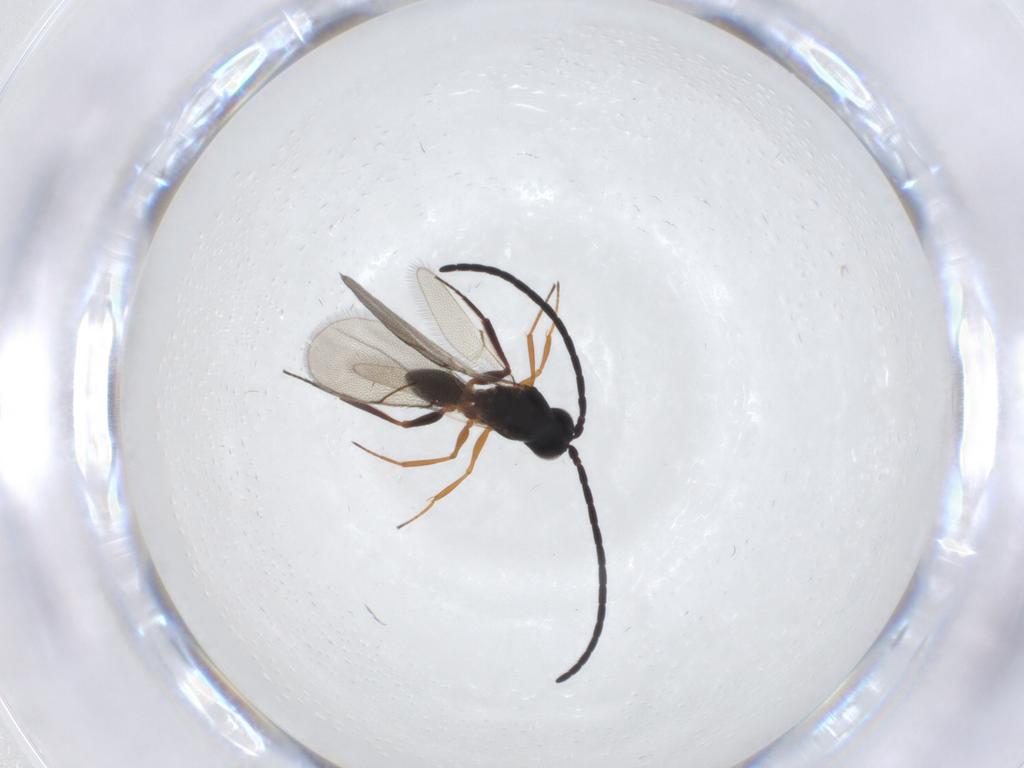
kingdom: Animalia
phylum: Arthropoda
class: Insecta
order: Hymenoptera
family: Figitidae
